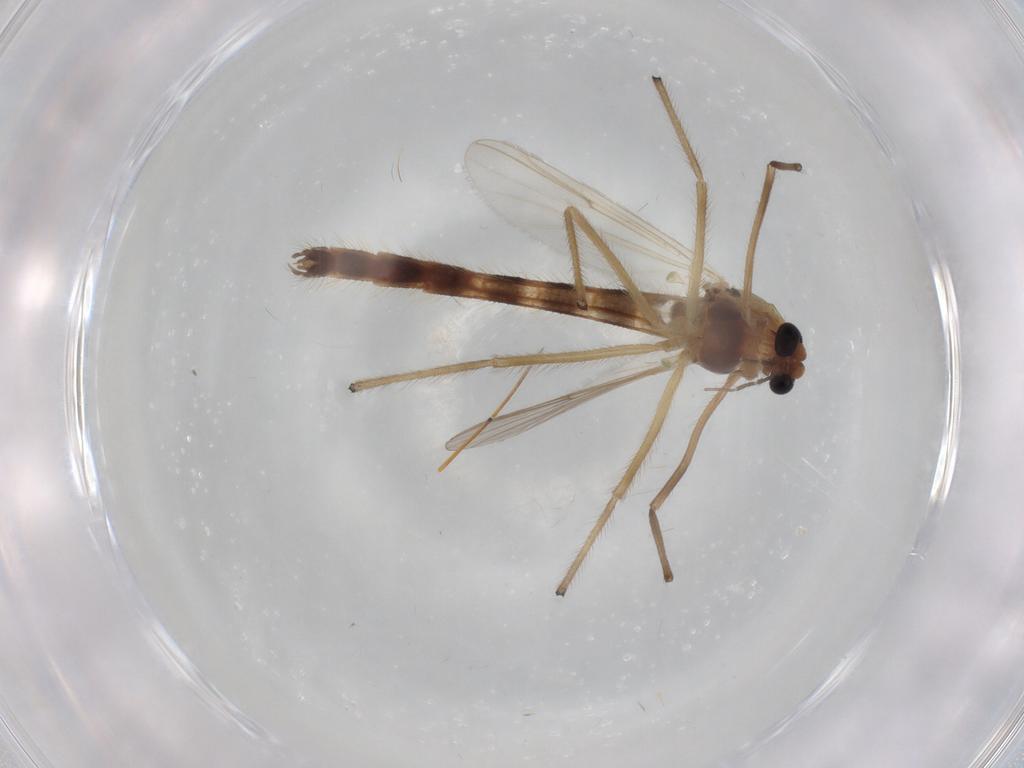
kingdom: Animalia
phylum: Arthropoda
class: Insecta
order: Diptera
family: Chironomidae
